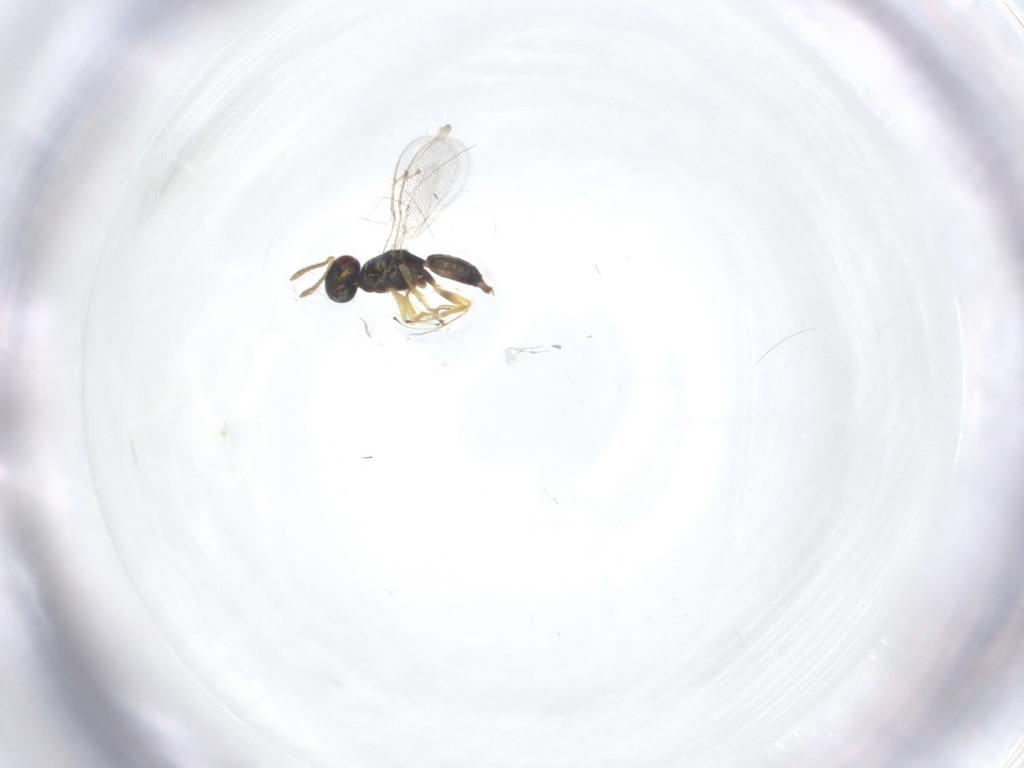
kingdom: Animalia
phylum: Arthropoda
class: Insecta
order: Hymenoptera
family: Pteromalidae
